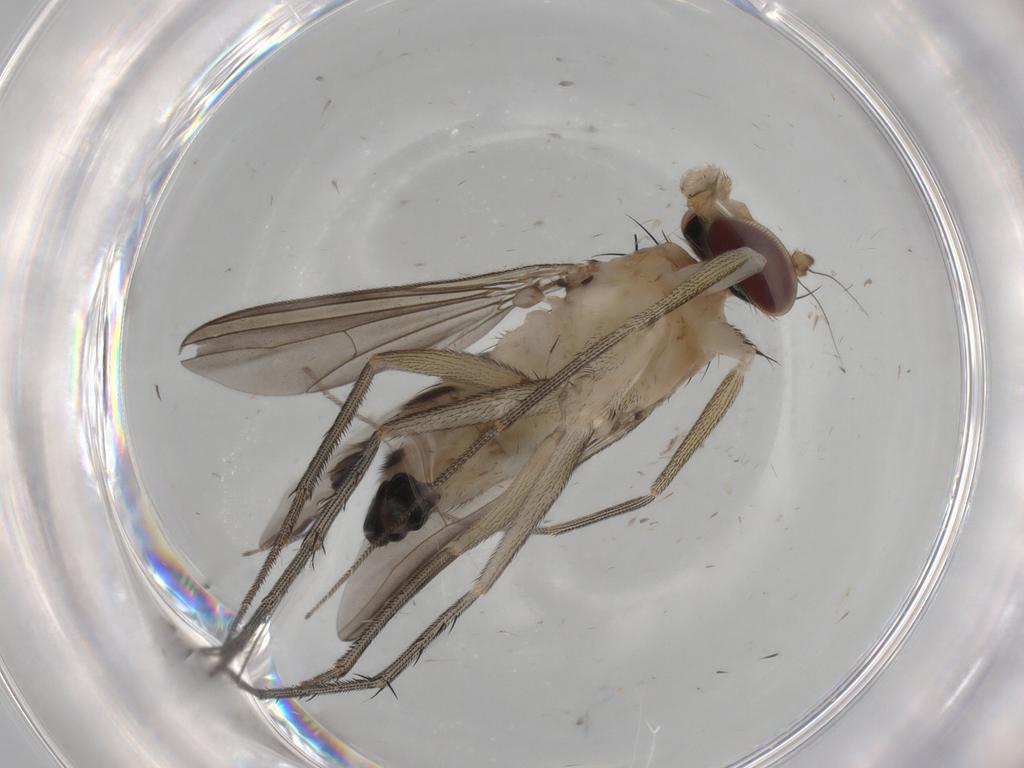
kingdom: Animalia
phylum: Arthropoda
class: Insecta
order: Diptera
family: Dolichopodidae
